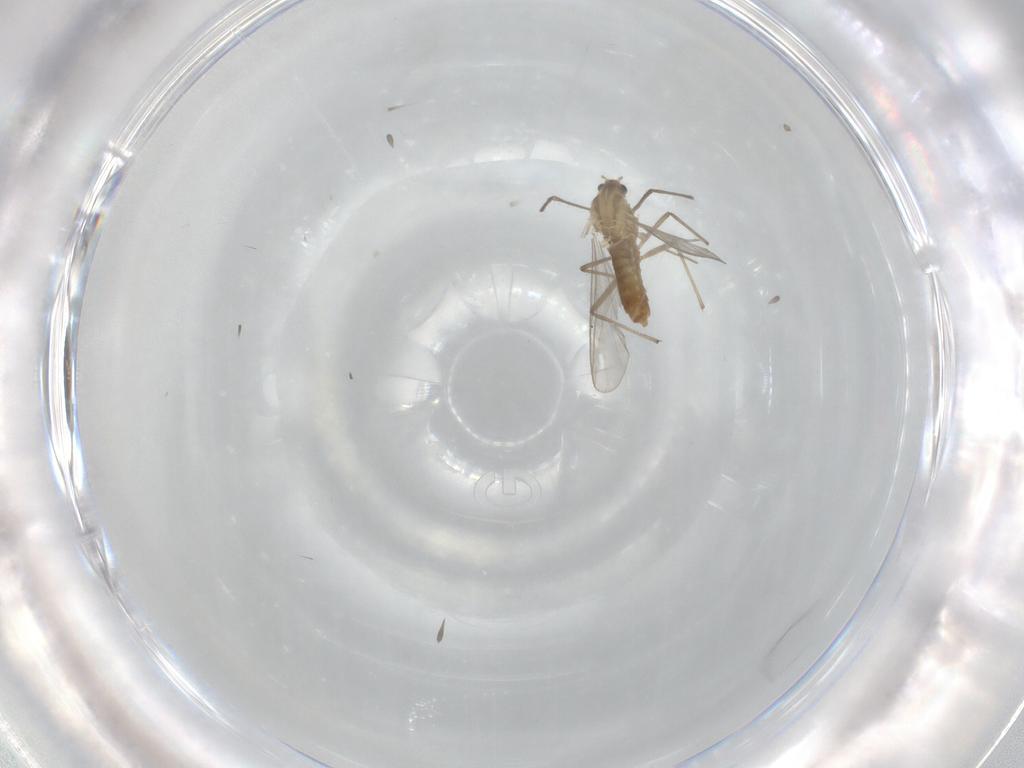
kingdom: Animalia
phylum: Arthropoda
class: Insecta
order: Diptera
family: Chironomidae
